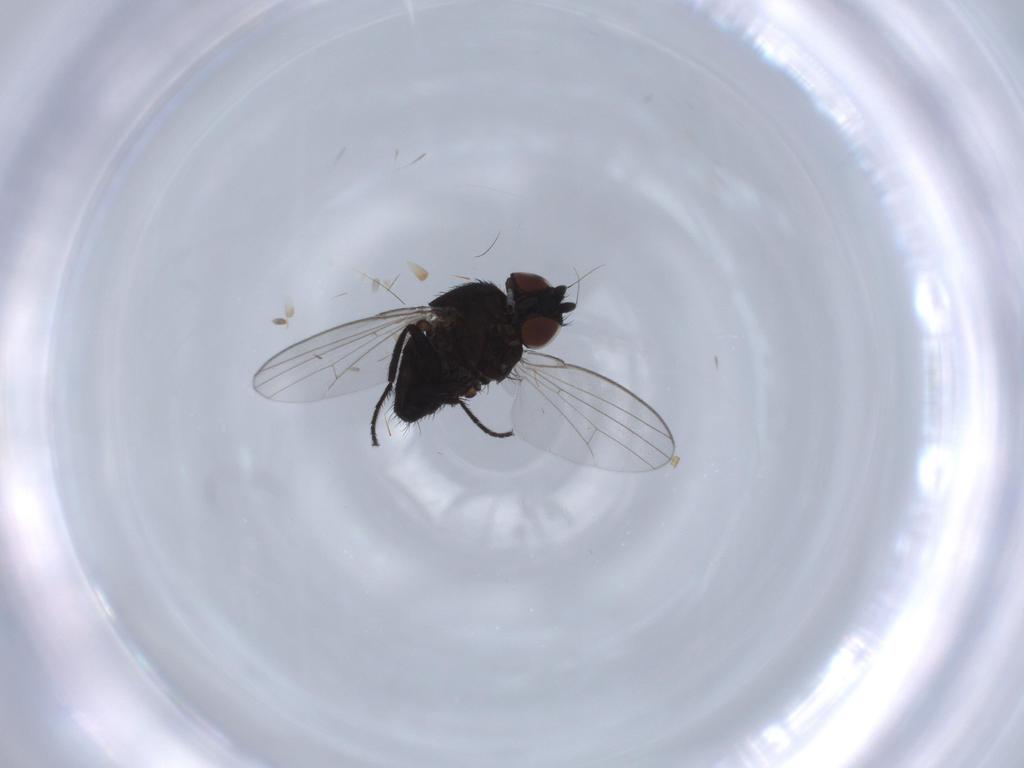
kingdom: Animalia
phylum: Arthropoda
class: Insecta
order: Diptera
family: Milichiidae
